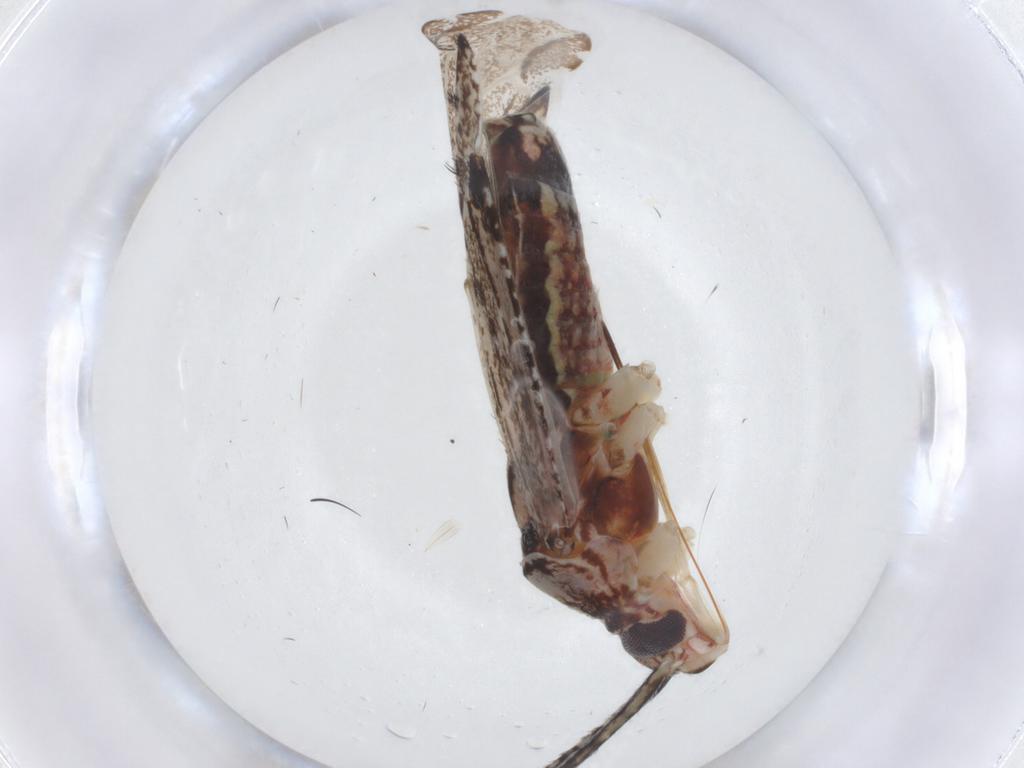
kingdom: Animalia
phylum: Arthropoda
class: Insecta
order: Hemiptera
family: Miridae
